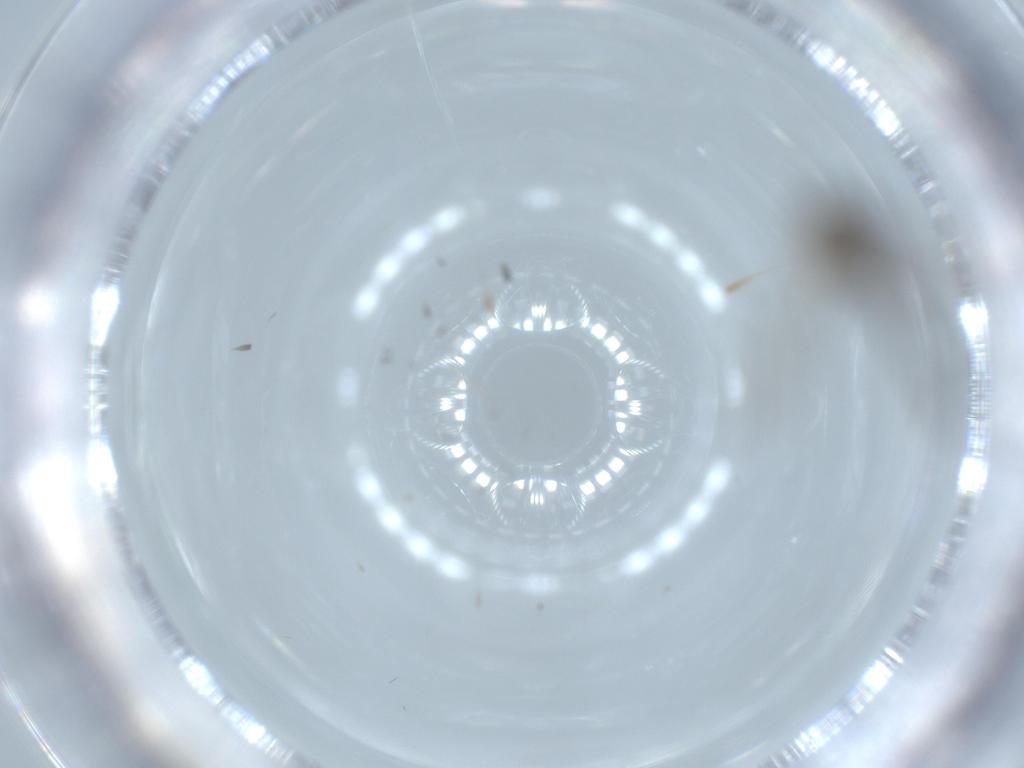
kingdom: Animalia
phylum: Arthropoda
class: Insecta
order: Diptera
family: Chironomidae
